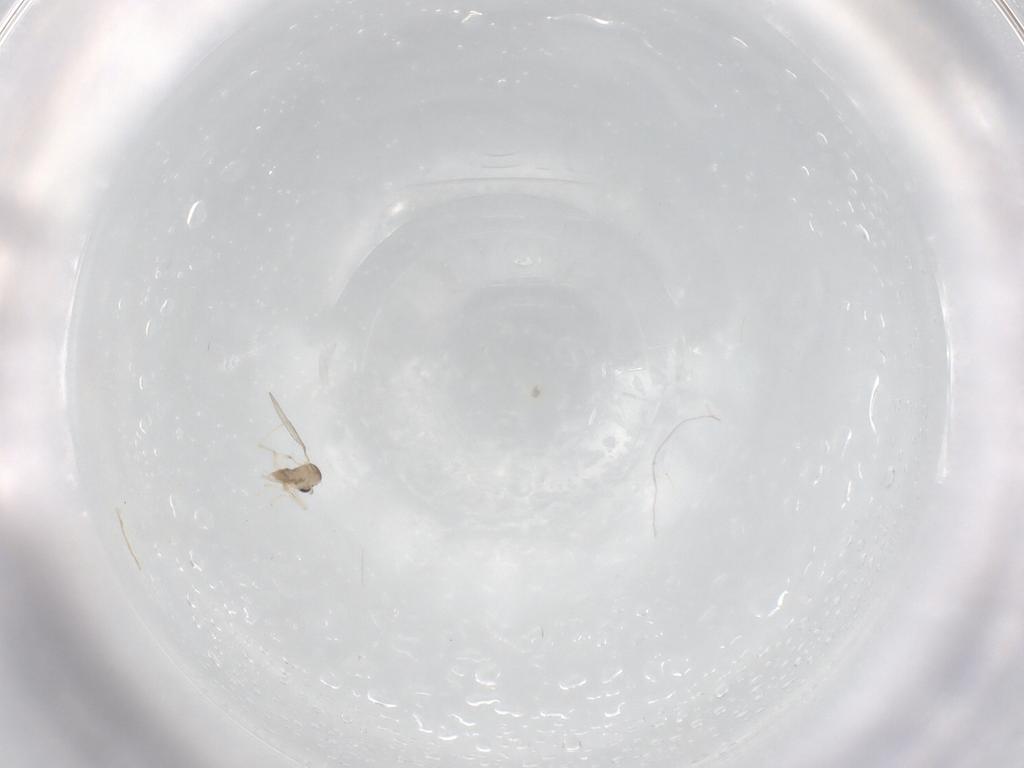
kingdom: Animalia
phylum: Arthropoda
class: Insecta
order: Diptera
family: Cecidomyiidae
